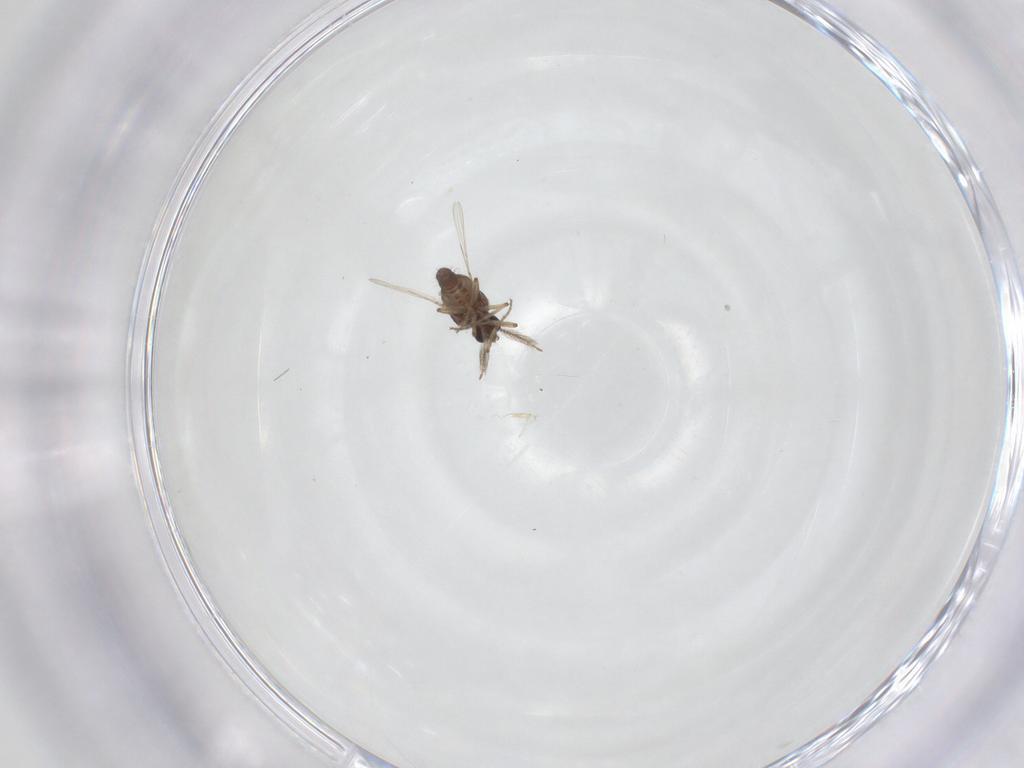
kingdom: Animalia
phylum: Arthropoda
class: Insecta
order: Diptera
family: Ceratopogonidae
